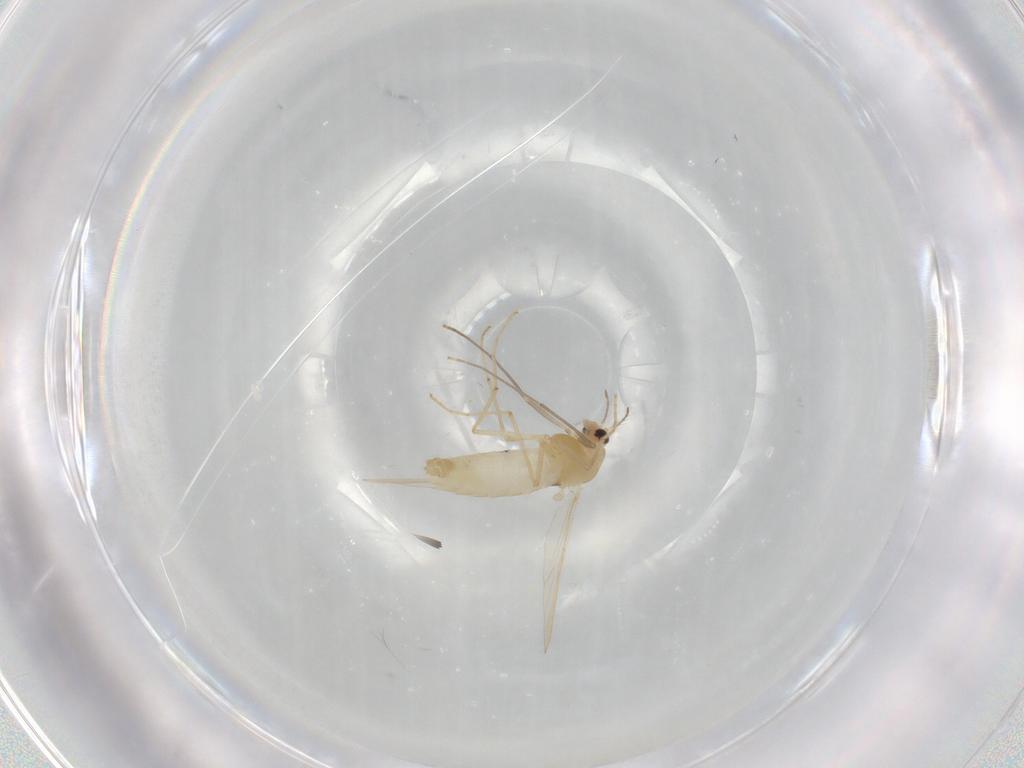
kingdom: Animalia
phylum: Arthropoda
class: Insecta
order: Diptera
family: Chironomidae
